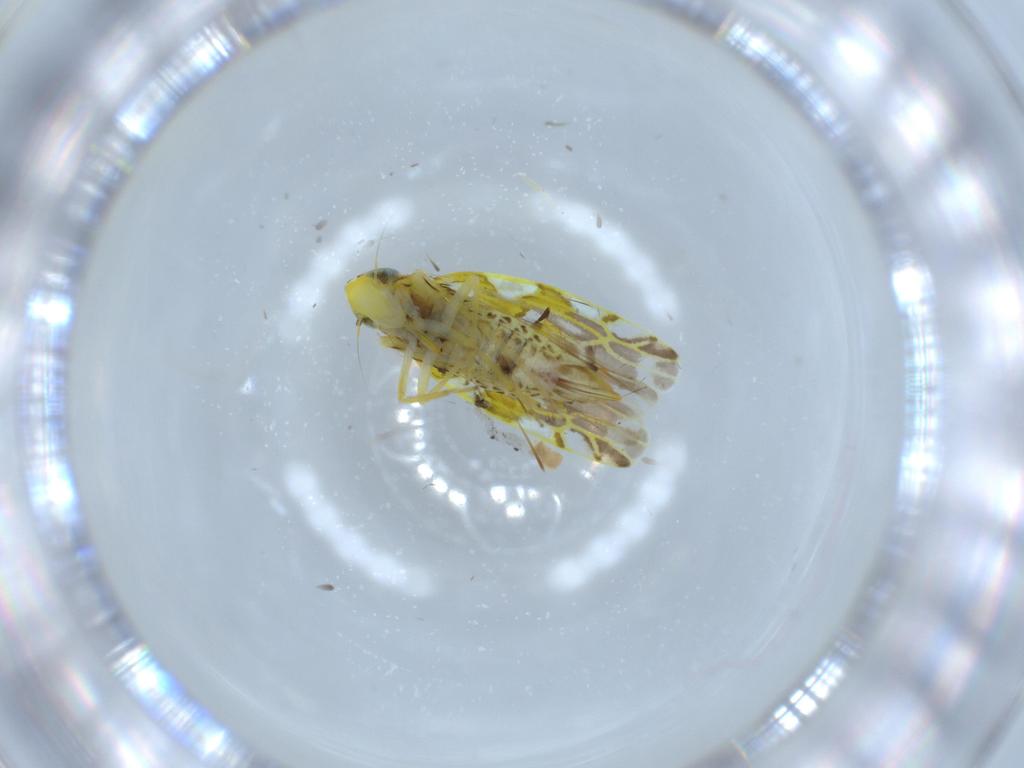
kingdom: Animalia
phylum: Arthropoda
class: Insecta
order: Hemiptera
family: Cicadellidae
